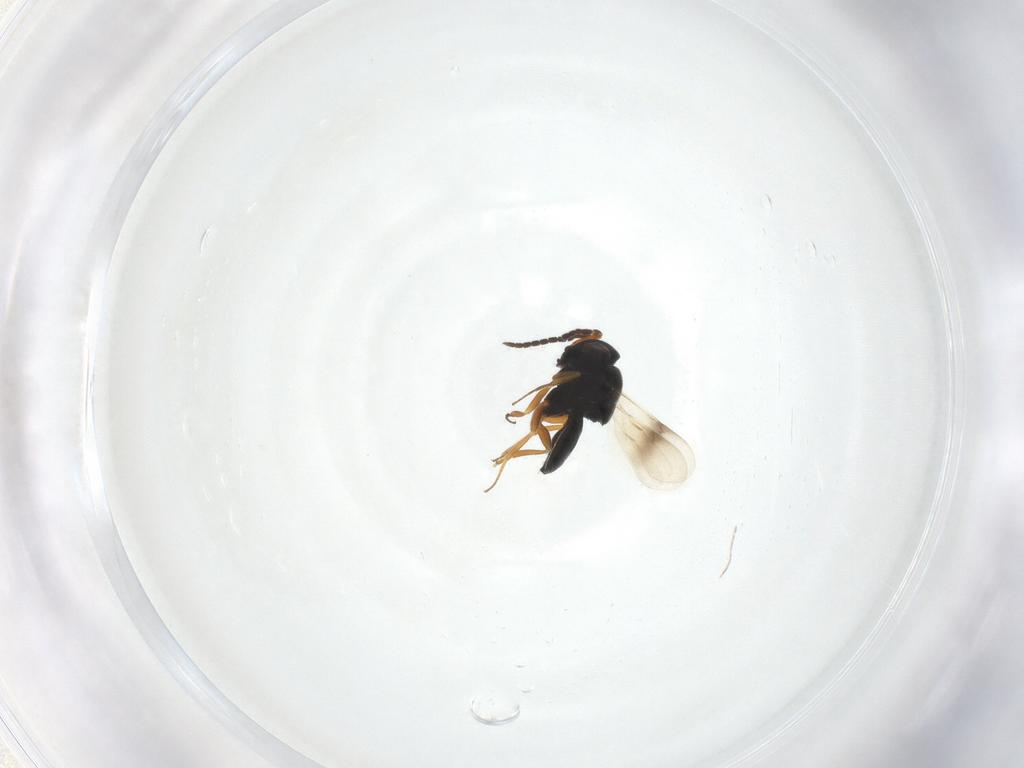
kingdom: Animalia
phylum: Arthropoda
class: Insecta
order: Hymenoptera
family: Scelionidae
